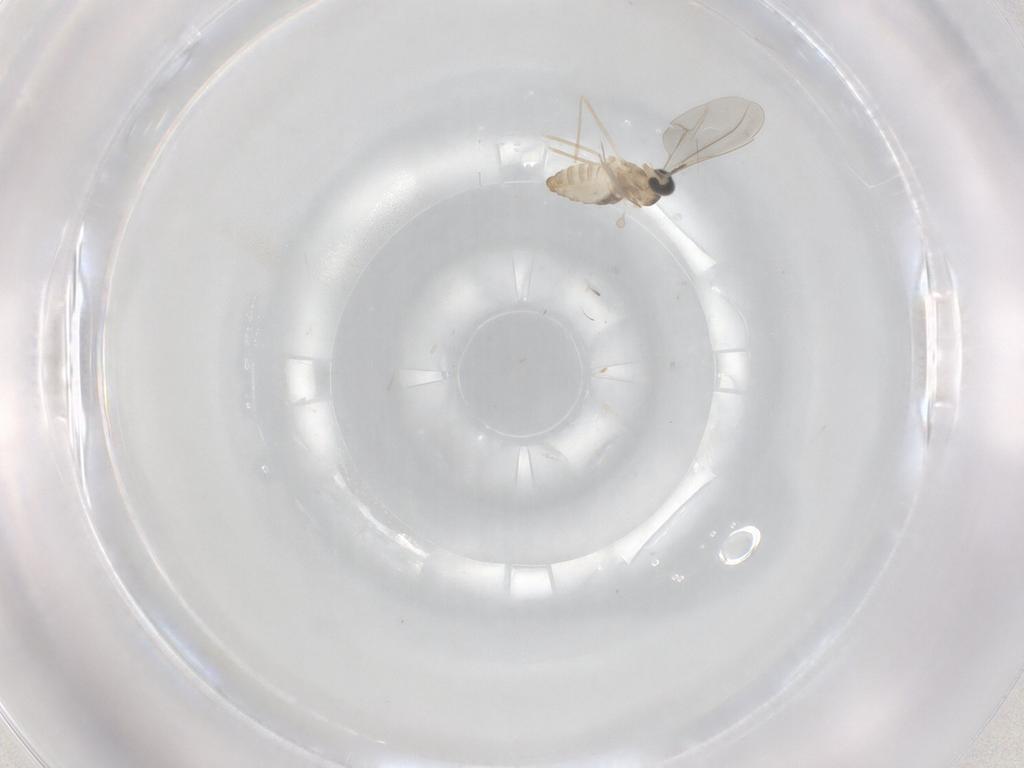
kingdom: Animalia
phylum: Arthropoda
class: Insecta
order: Diptera
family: Cecidomyiidae
